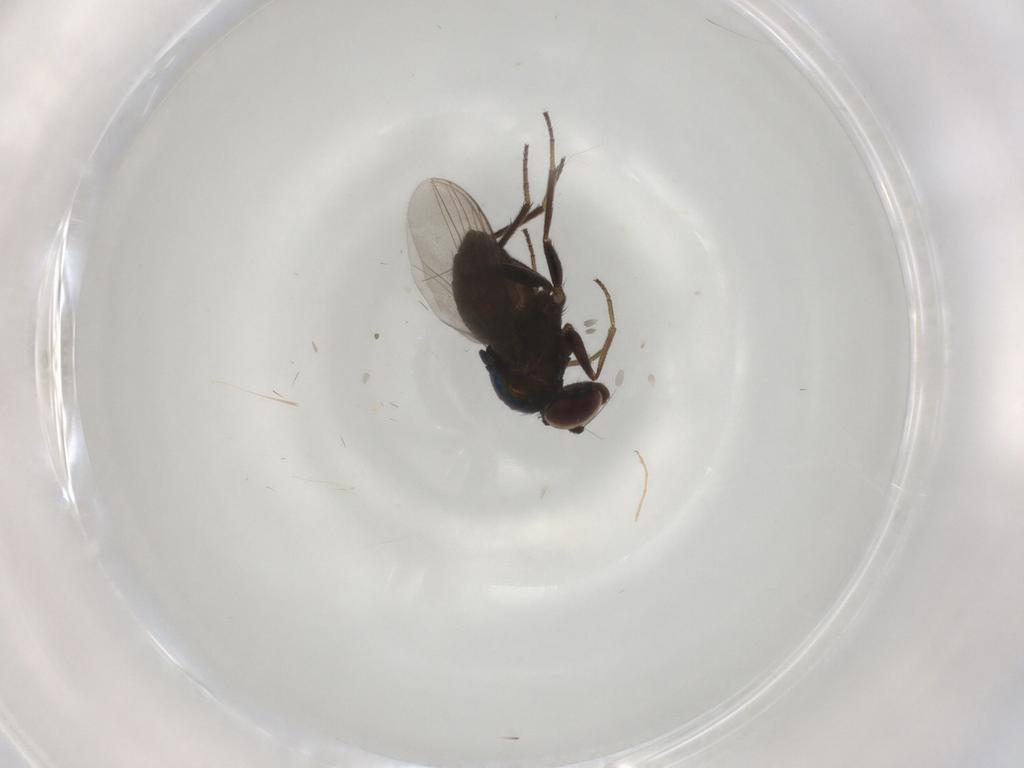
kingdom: Animalia
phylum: Arthropoda
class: Insecta
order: Diptera
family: Dolichopodidae
